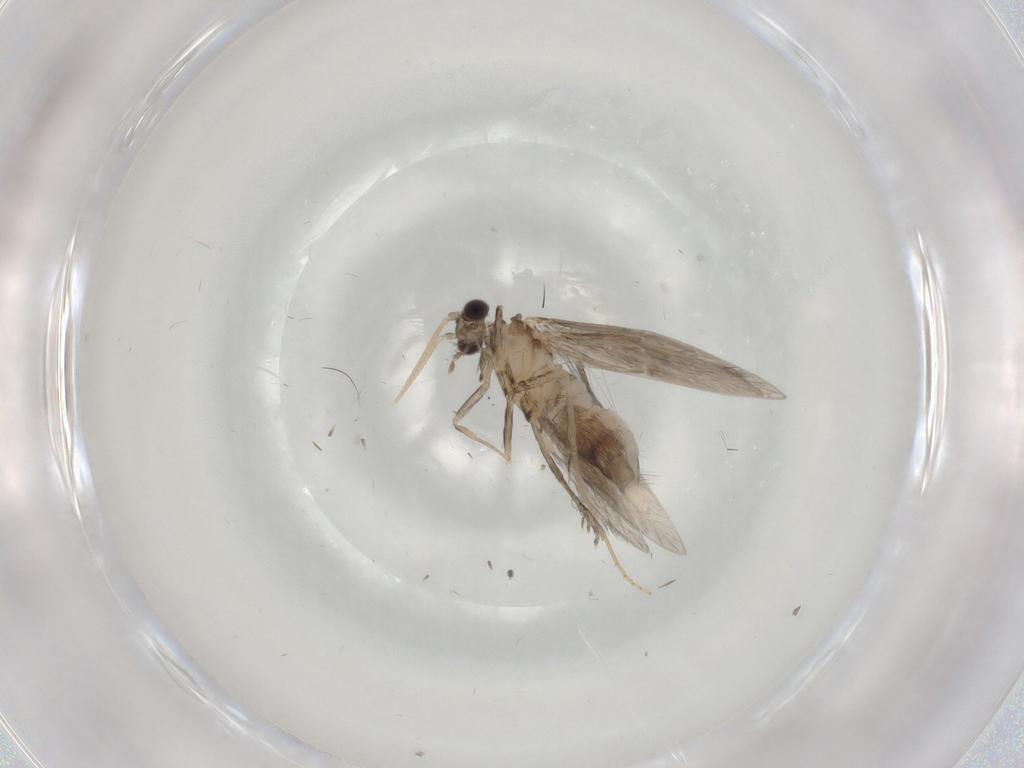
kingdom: Animalia
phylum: Arthropoda
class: Insecta
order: Trichoptera
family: Hydroptilidae
